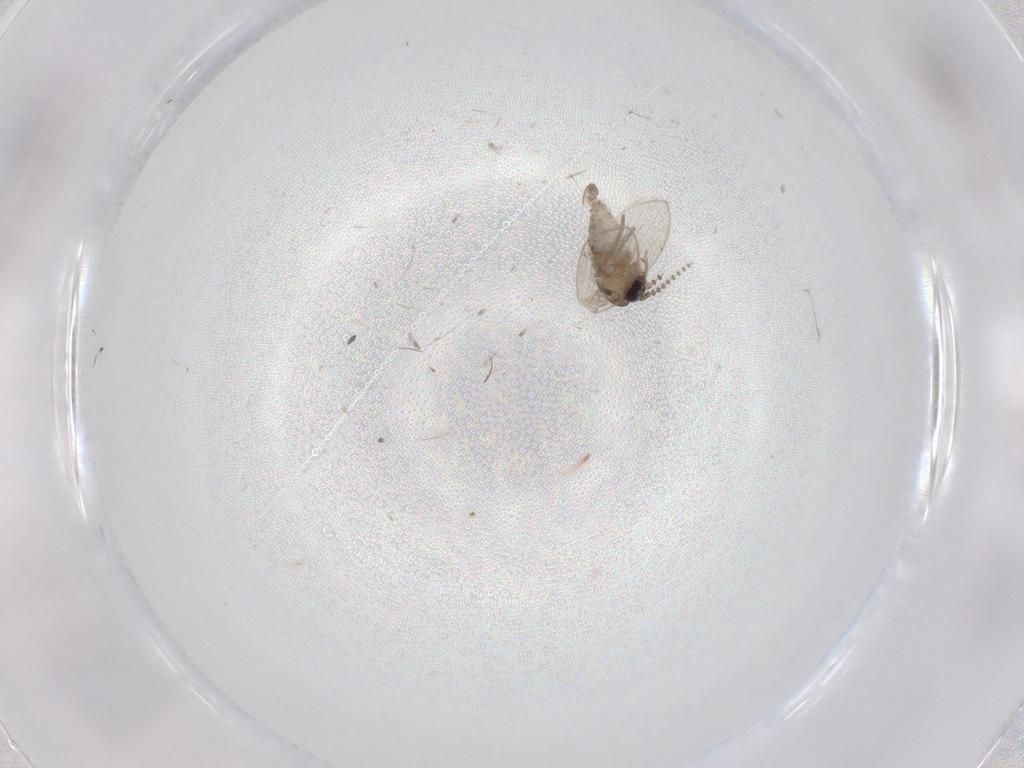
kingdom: Animalia
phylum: Arthropoda
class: Insecta
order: Diptera
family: Psychodidae
